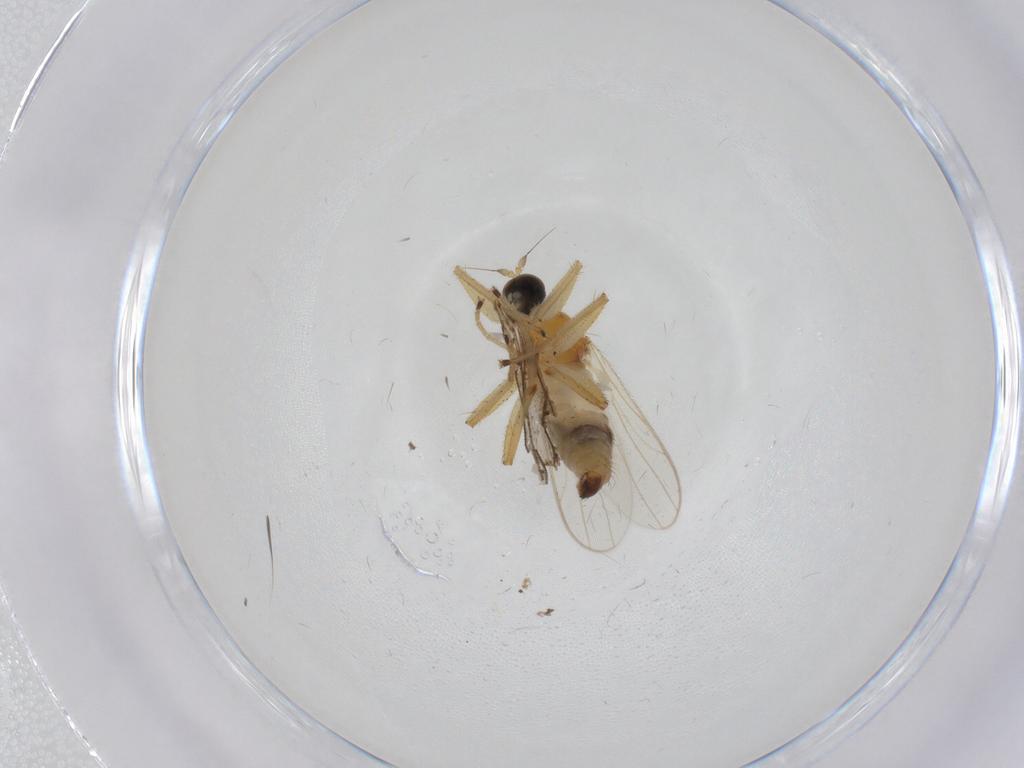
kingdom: Animalia
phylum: Arthropoda
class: Insecta
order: Diptera
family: Hybotidae
